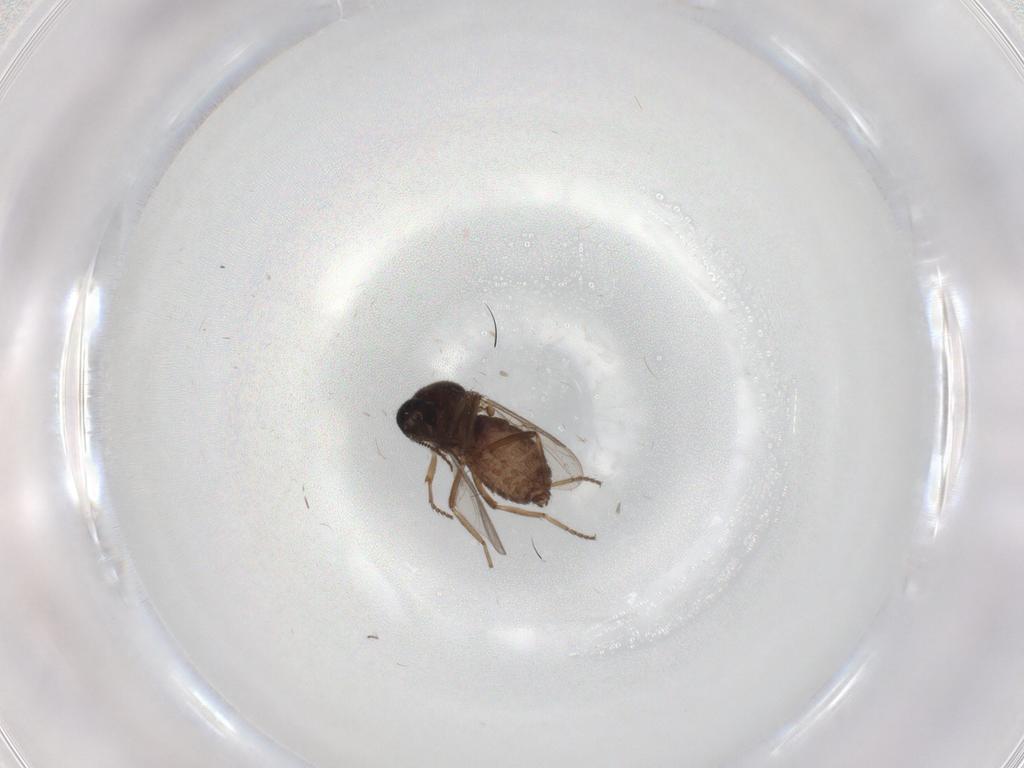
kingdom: Animalia
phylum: Arthropoda
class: Insecta
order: Diptera
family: Ceratopogonidae
